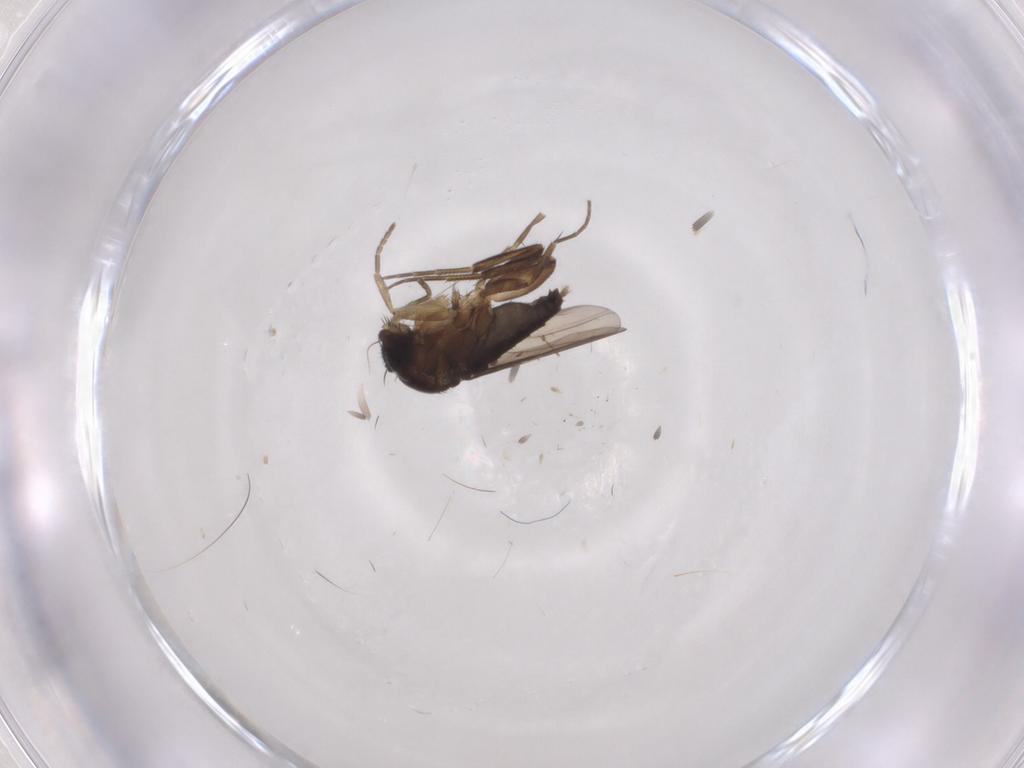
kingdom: Animalia
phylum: Arthropoda
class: Insecta
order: Diptera
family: Phoridae
